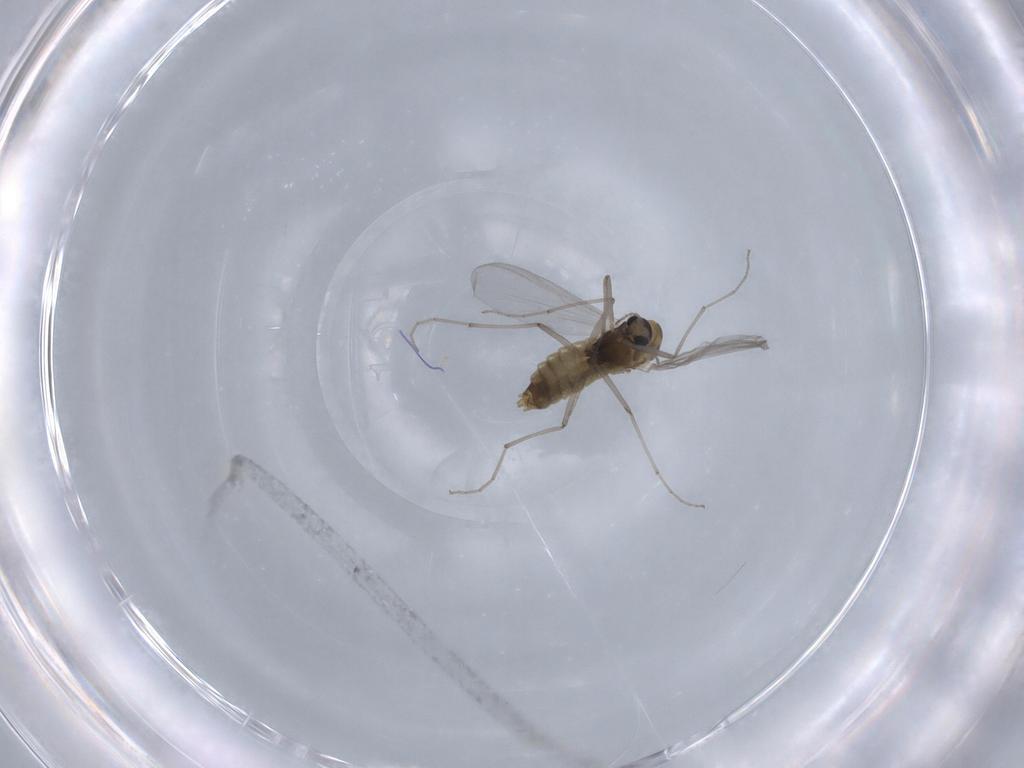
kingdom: Animalia
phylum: Arthropoda
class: Insecta
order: Diptera
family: Chironomidae
